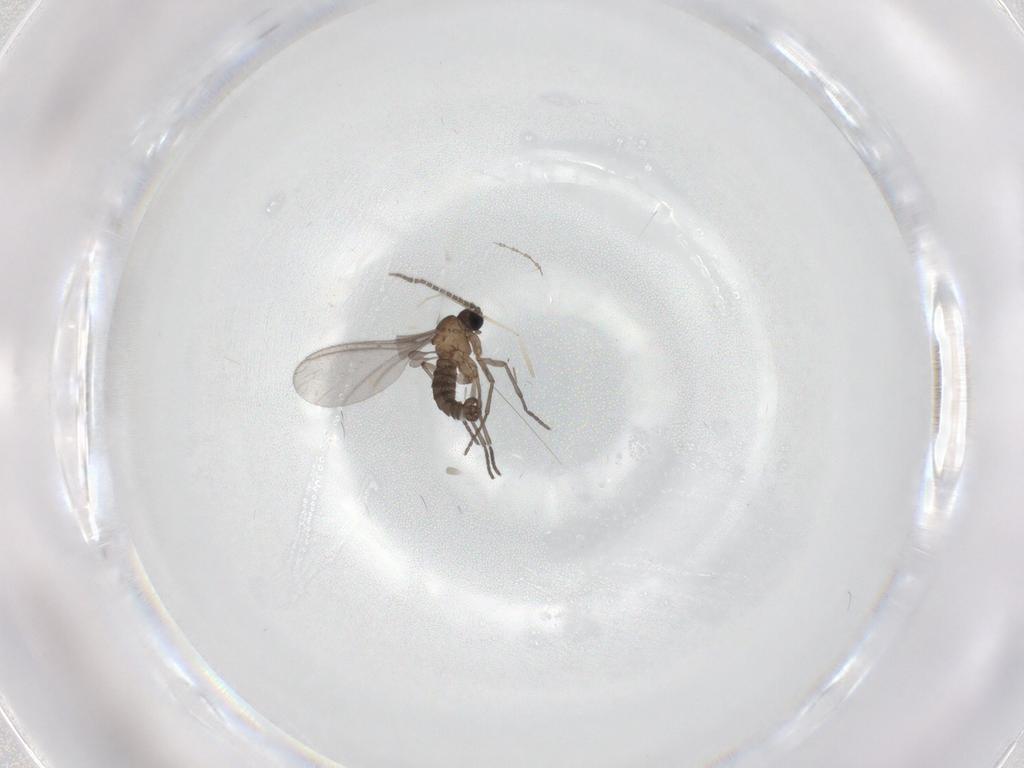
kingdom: Animalia
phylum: Arthropoda
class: Insecta
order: Diptera
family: Sciaridae
